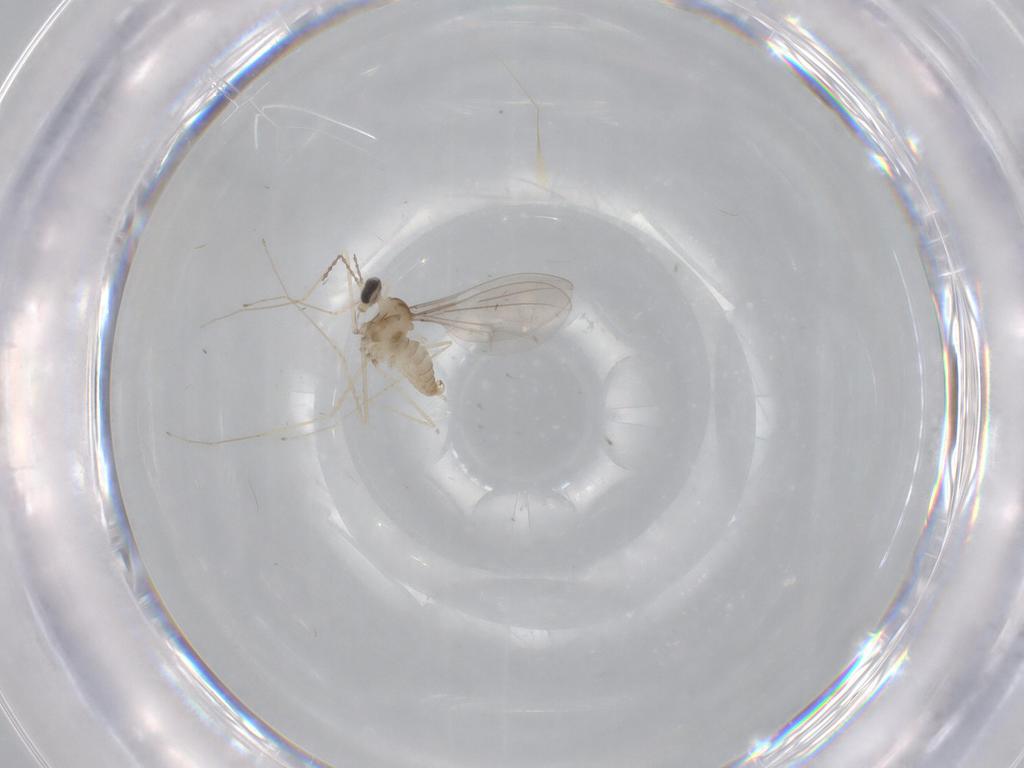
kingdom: Animalia
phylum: Arthropoda
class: Insecta
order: Diptera
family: Cecidomyiidae
